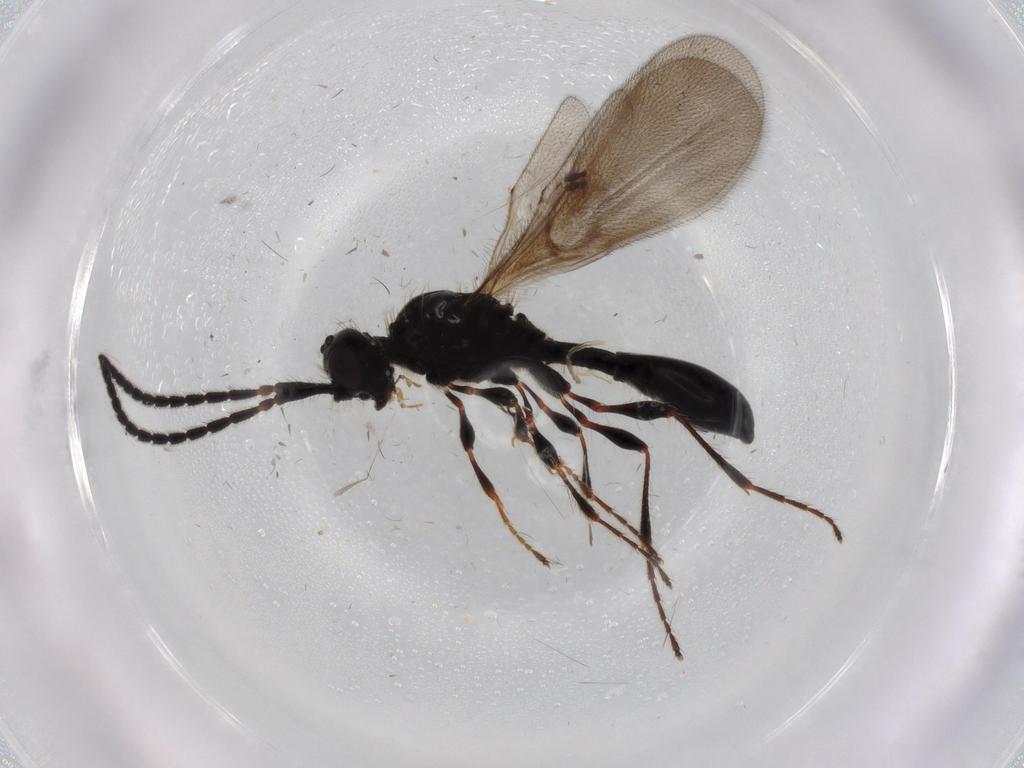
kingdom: Animalia
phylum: Arthropoda
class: Insecta
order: Hymenoptera
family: Diapriidae
